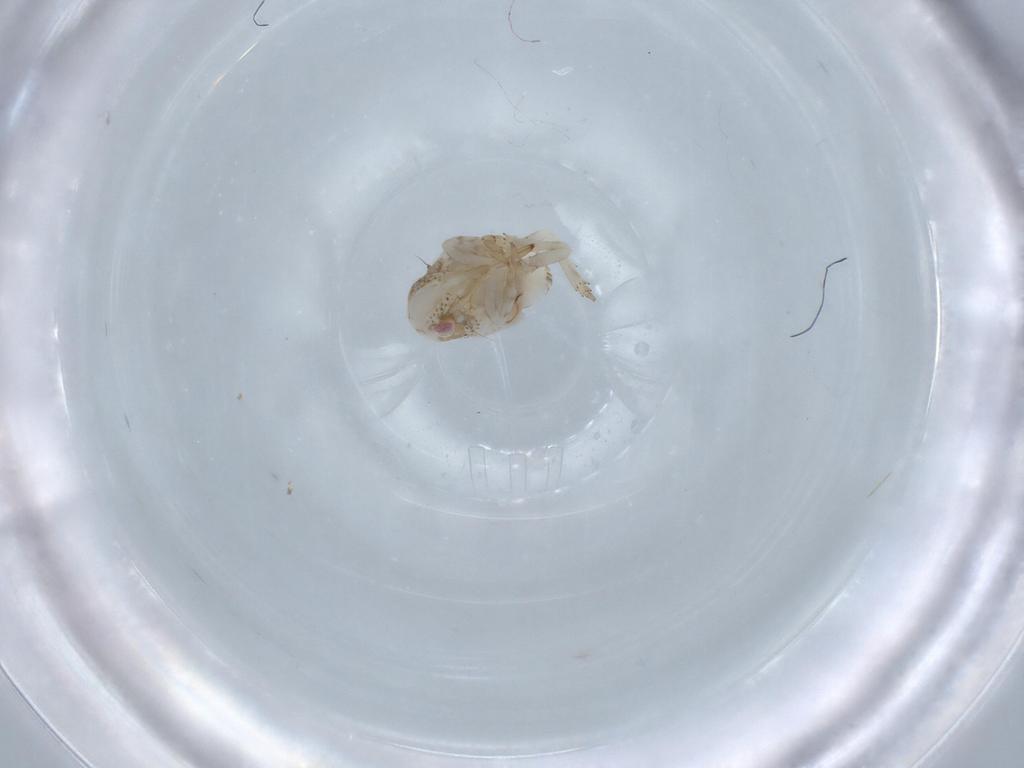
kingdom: Animalia
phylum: Arthropoda
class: Insecta
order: Hemiptera
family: Acanaloniidae
